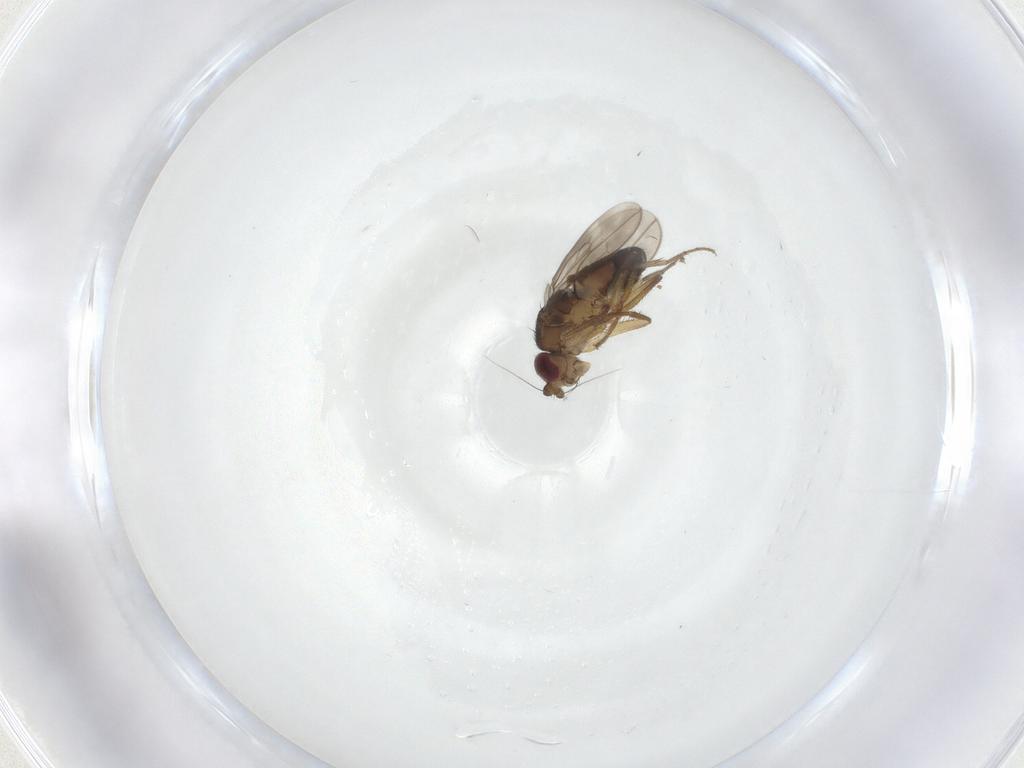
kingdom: Animalia
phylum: Arthropoda
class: Insecta
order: Diptera
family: Sphaeroceridae
